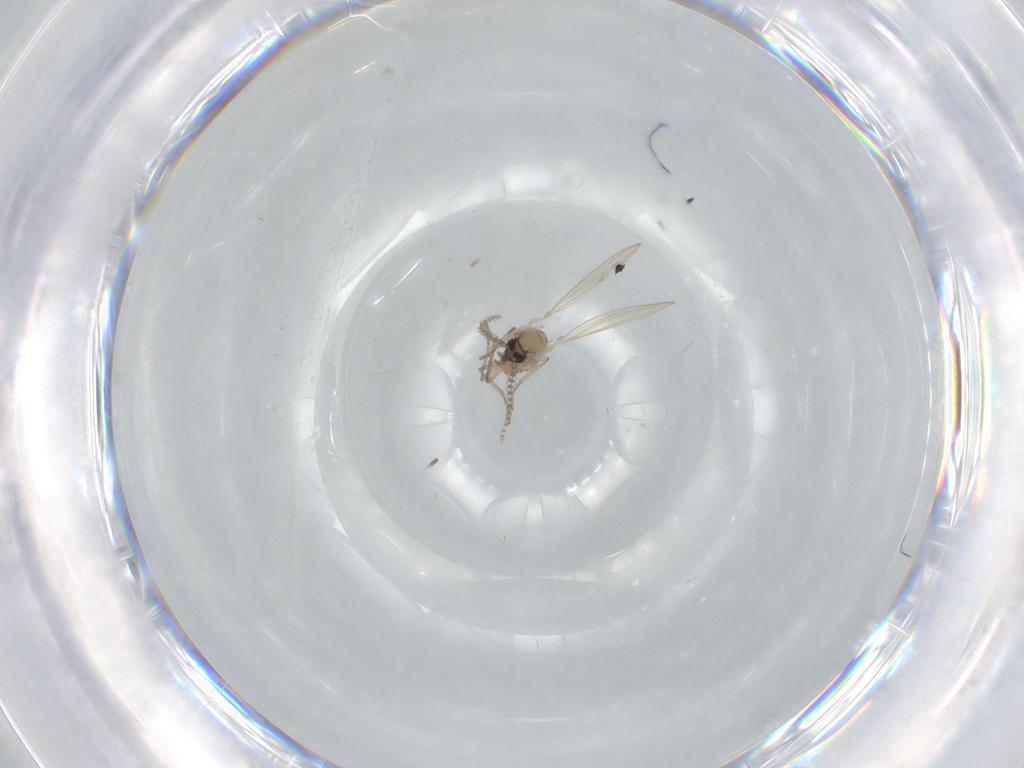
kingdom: Animalia
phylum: Arthropoda
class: Insecta
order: Diptera
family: Psychodidae
